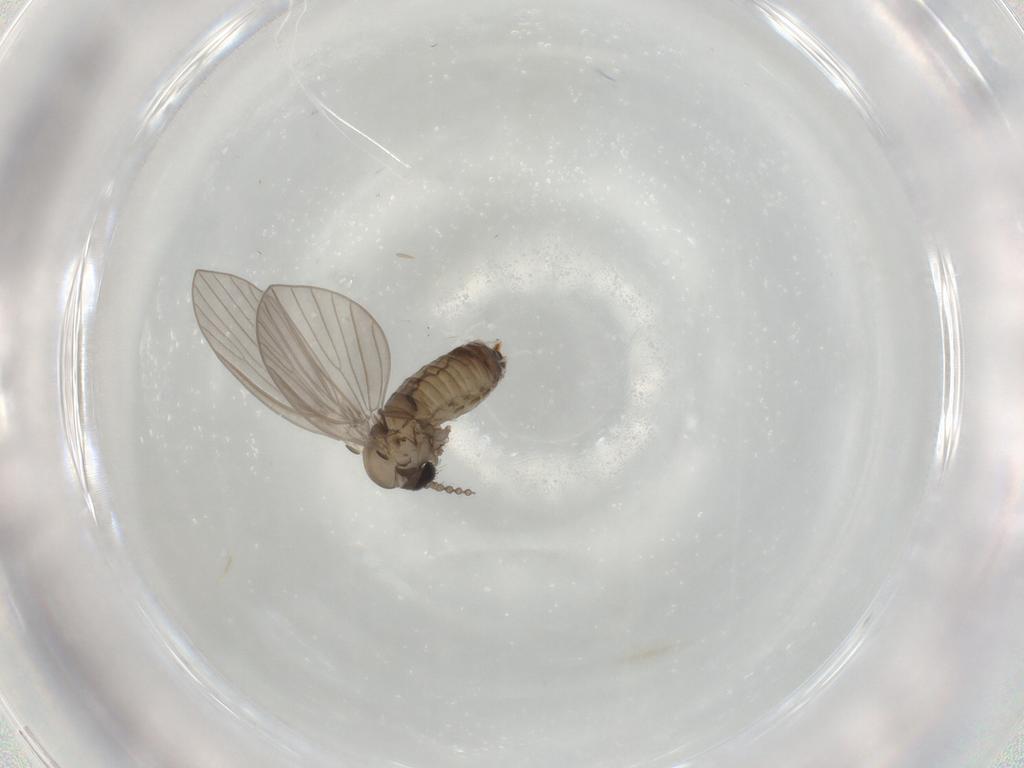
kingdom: Animalia
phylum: Arthropoda
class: Insecta
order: Diptera
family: Psychodidae
